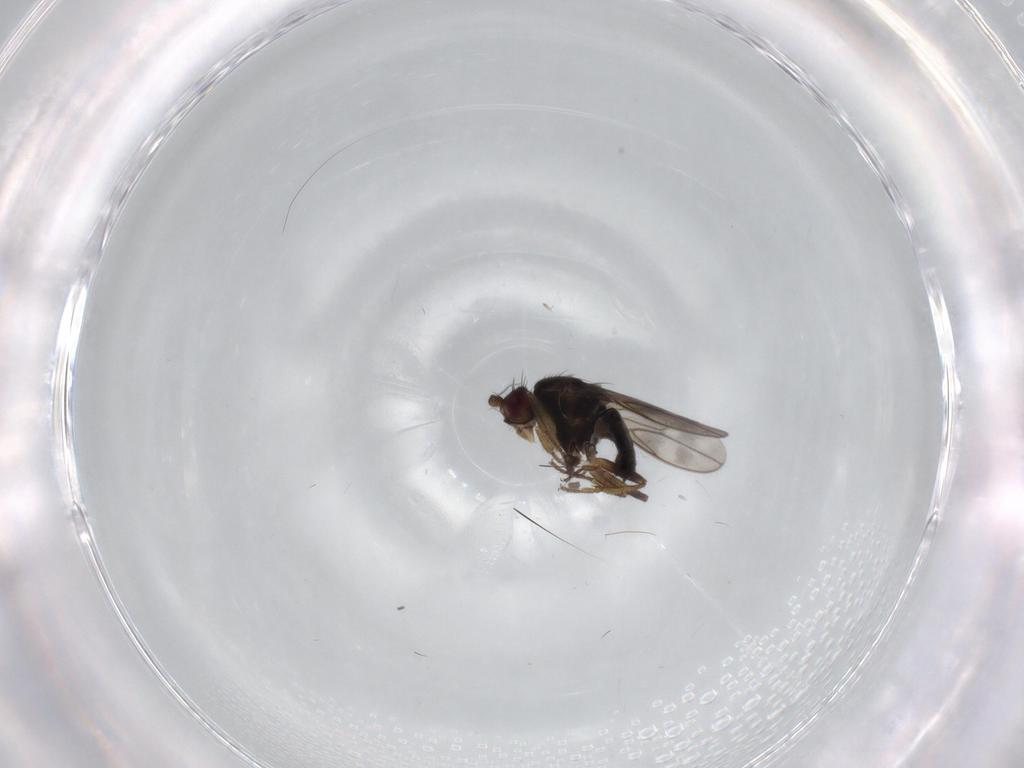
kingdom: Animalia
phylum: Arthropoda
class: Insecta
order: Diptera
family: Sphaeroceridae
